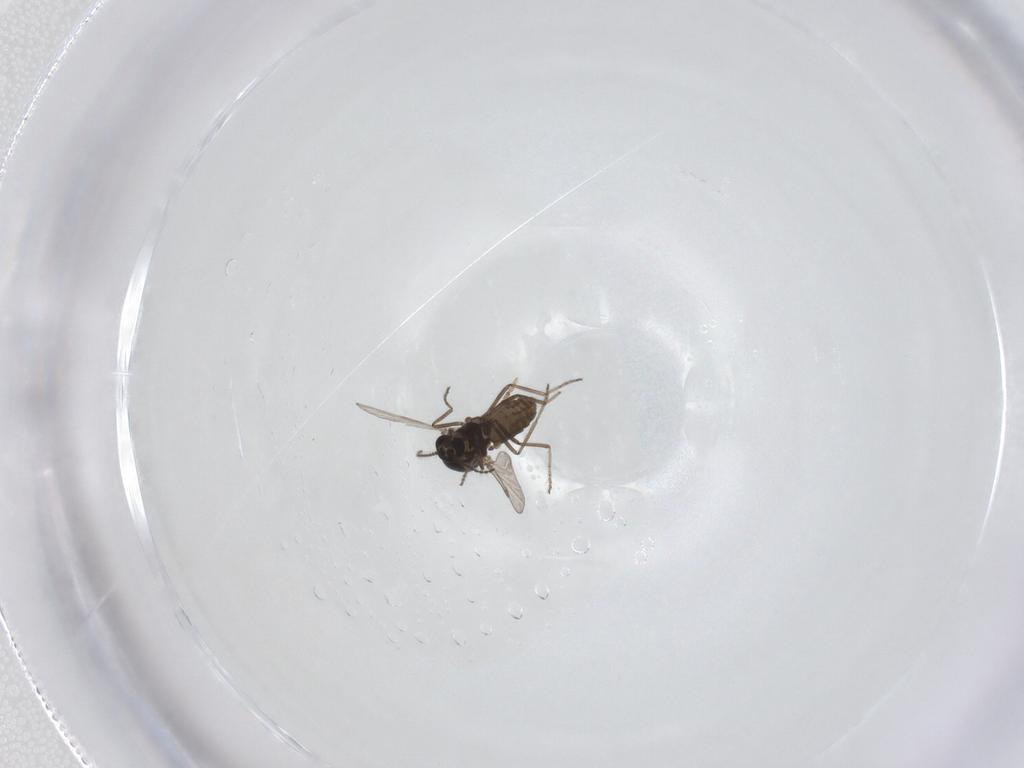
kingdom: Animalia
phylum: Arthropoda
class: Insecta
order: Diptera
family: Ceratopogonidae
